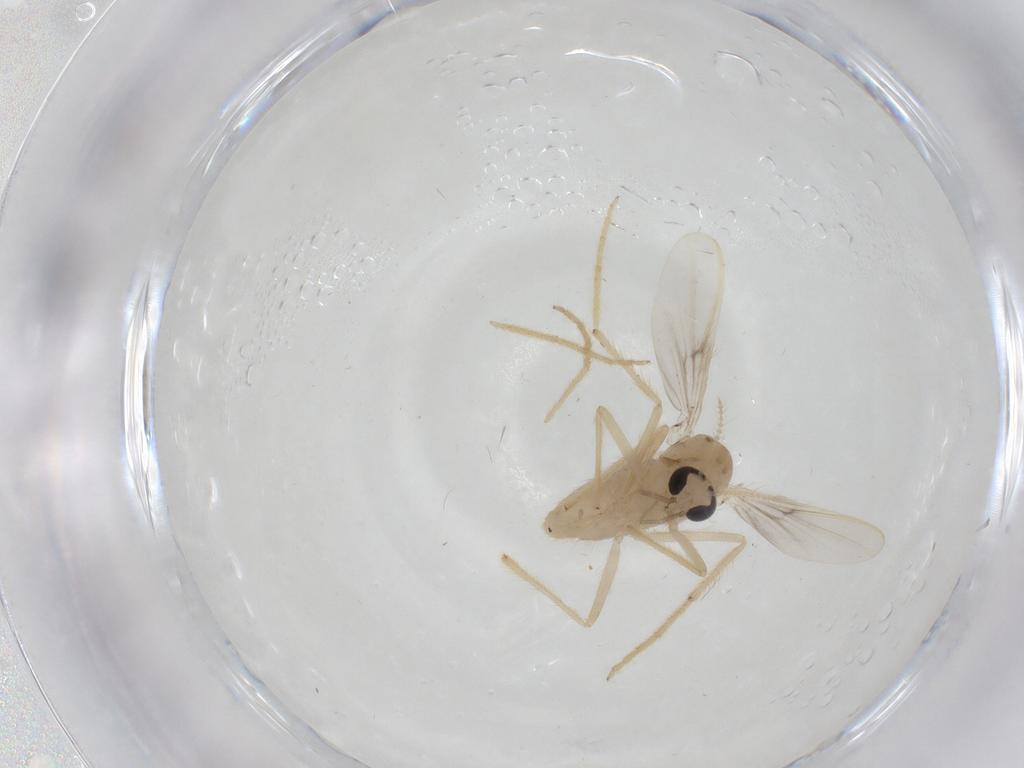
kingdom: Animalia
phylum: Arthropoda
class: Insecta
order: Diptera
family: Chironomidae
